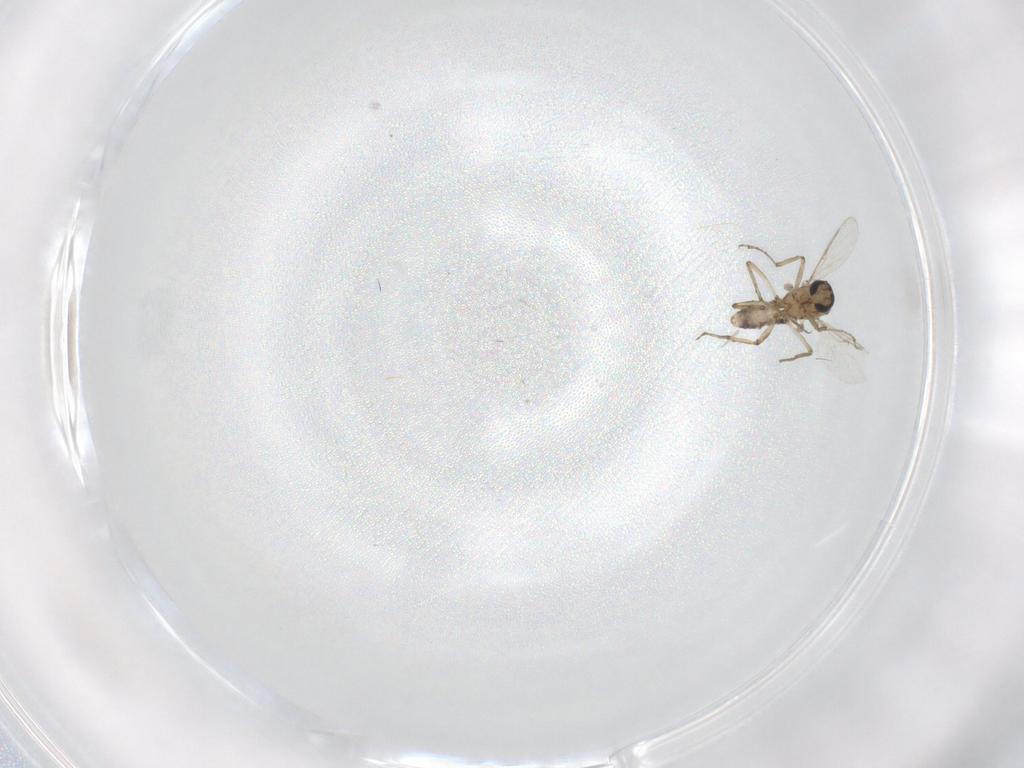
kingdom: Animalia
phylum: Arthropoda
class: Insecta
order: Diptera
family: Ceratopogonidae
